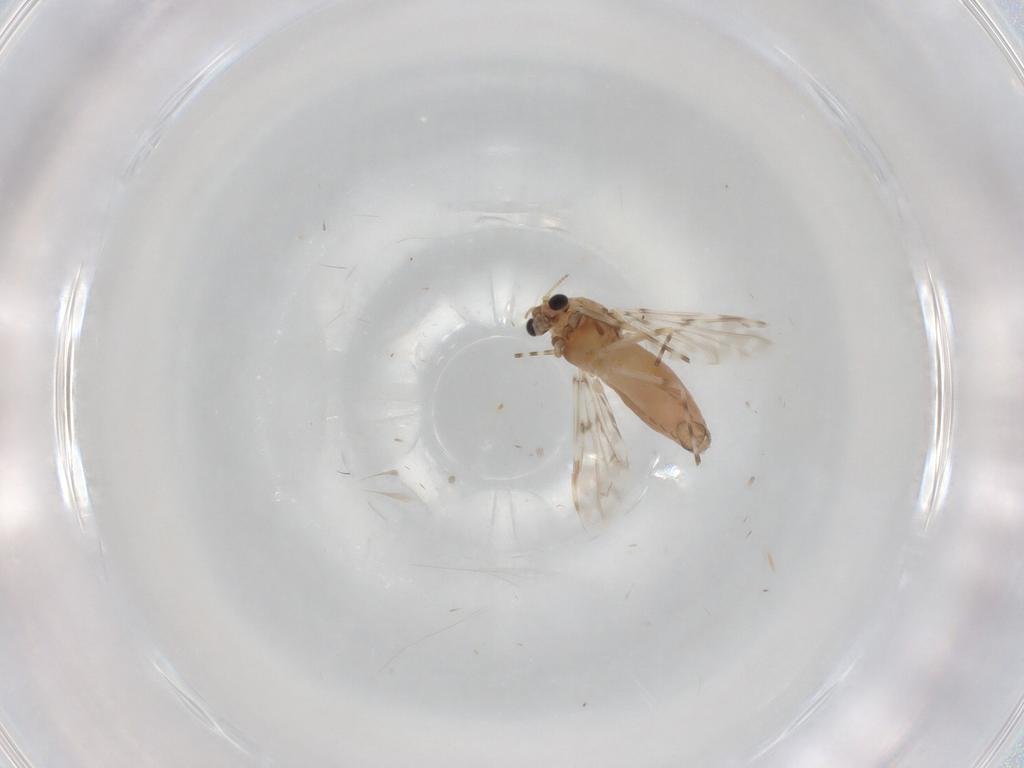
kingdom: Animalia
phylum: Arthropoda
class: Insecta
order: Diptera
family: Chironomidae
